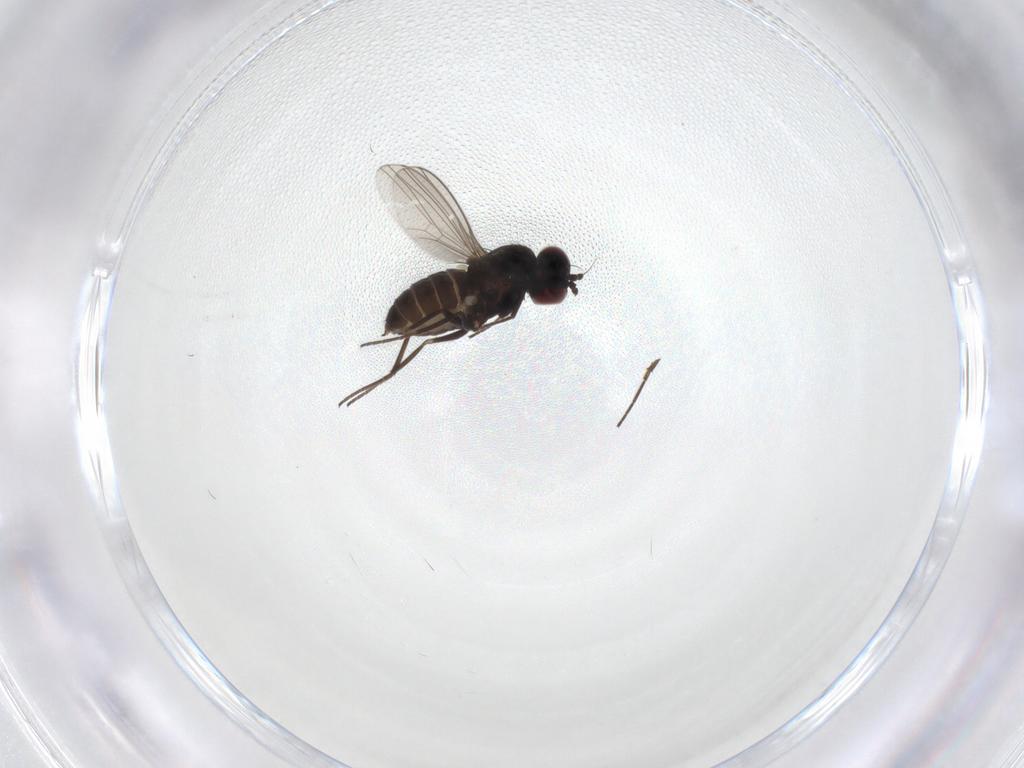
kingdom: Animalia
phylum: Arthropoda
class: Insecta
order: Diptera
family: Dolichopodidae
